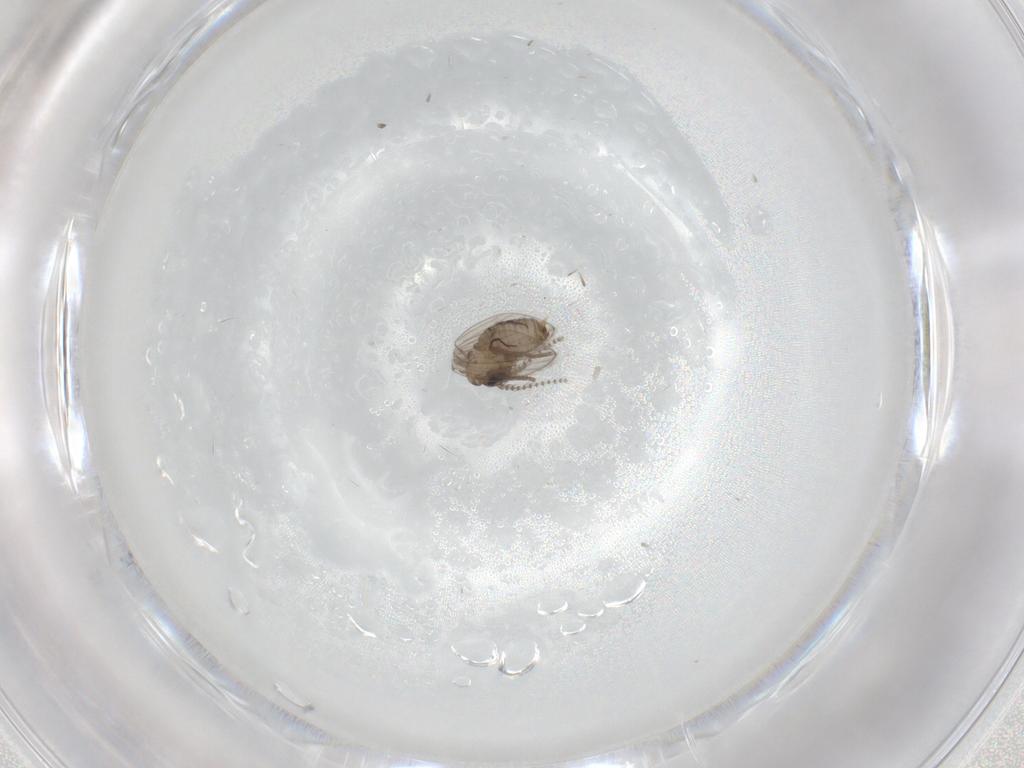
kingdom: Animalia
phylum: Arthropoda
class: Insecta
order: Diptera
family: Psychodidae
